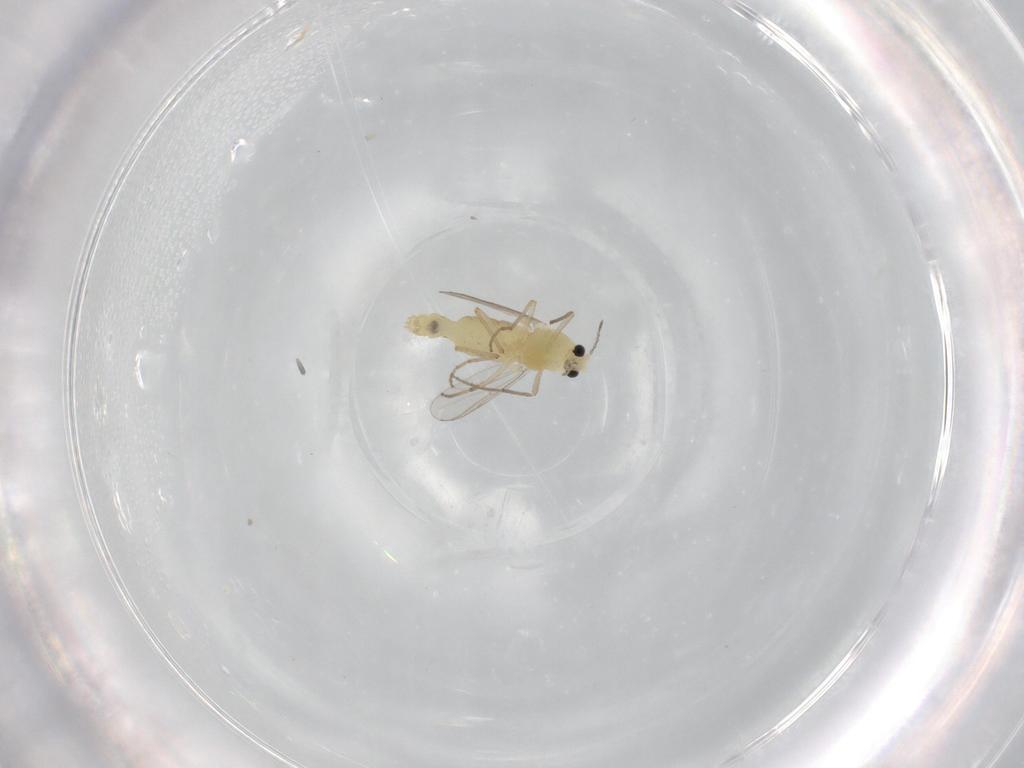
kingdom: Animalia
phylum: Arthropoda
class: Insecta
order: Diptera
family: Chironomidae
